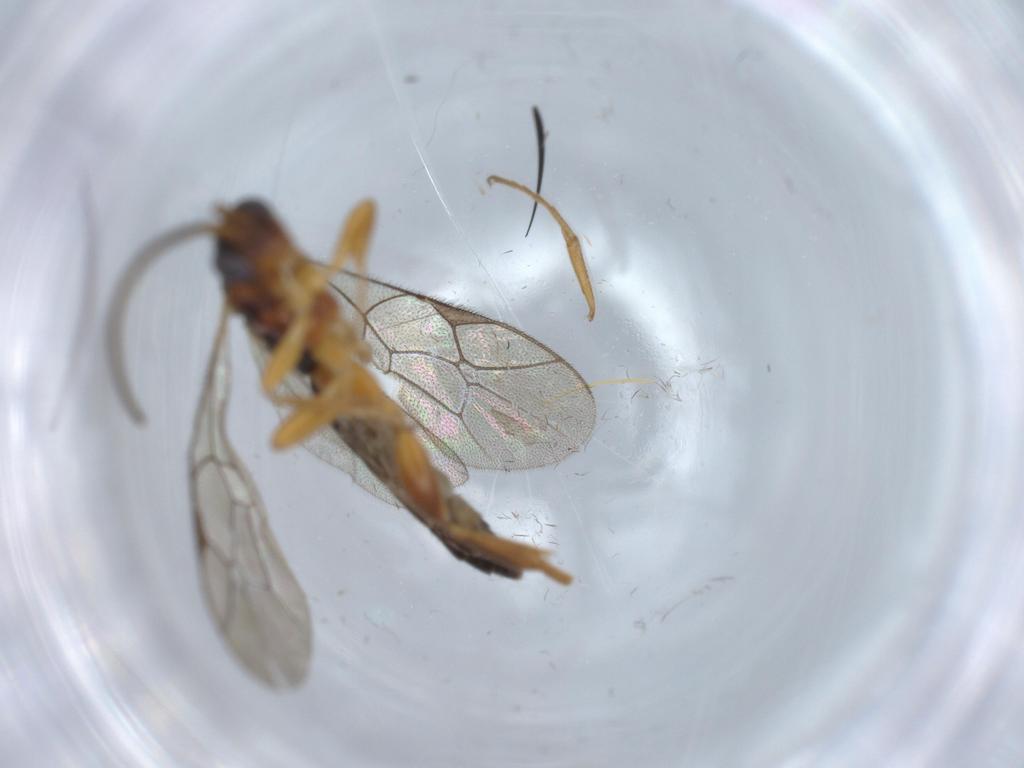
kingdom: Animalia
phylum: Arthropoda
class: Insecta
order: Hymenoptera
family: Ichneumonidae
